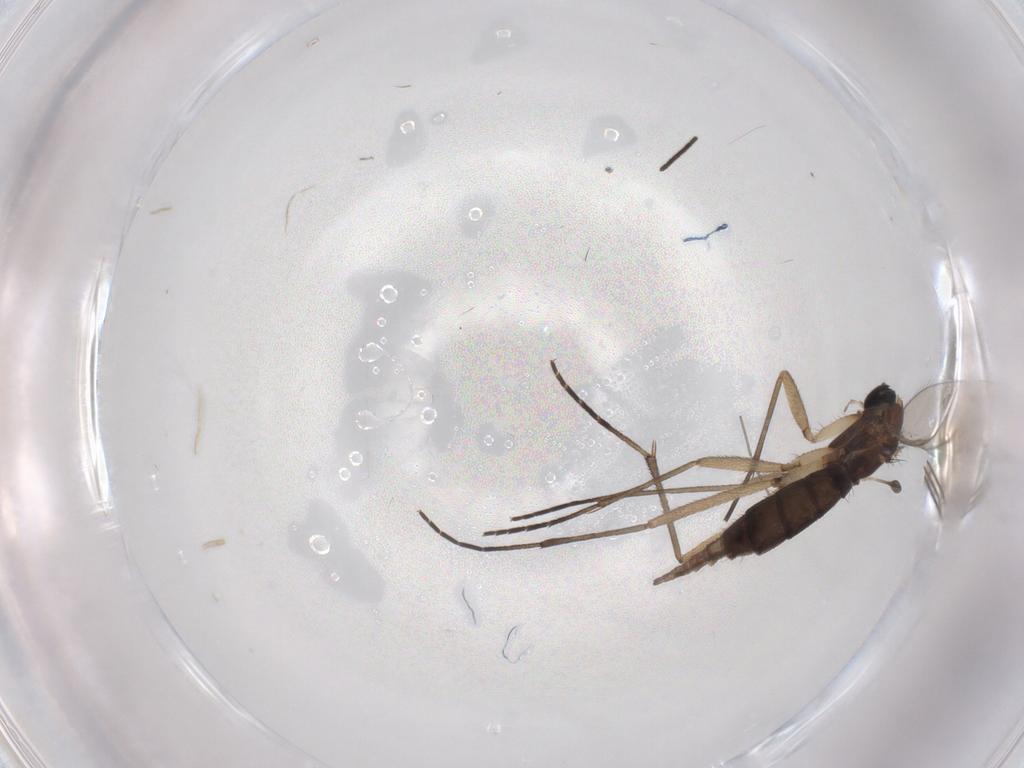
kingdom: Animalia
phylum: Arthropoda
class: Insecta
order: Diptera
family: Sciaridae
